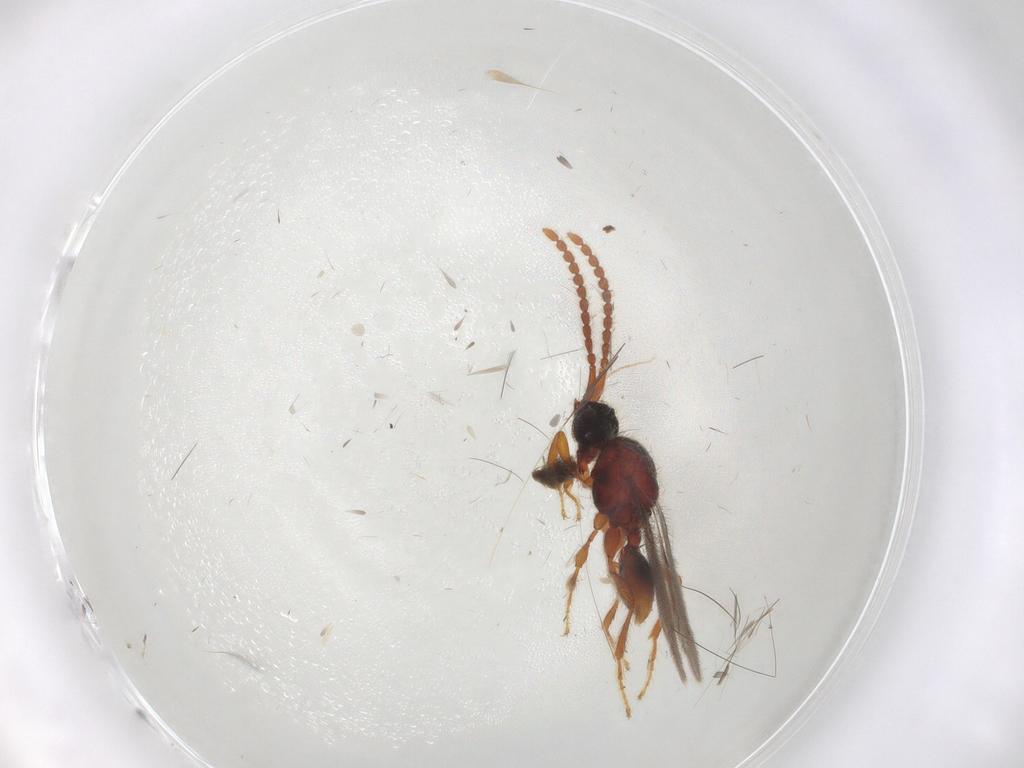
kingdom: Animalia
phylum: Arthropoda
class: Insecta
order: Hymenoptera
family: Diapriidae
